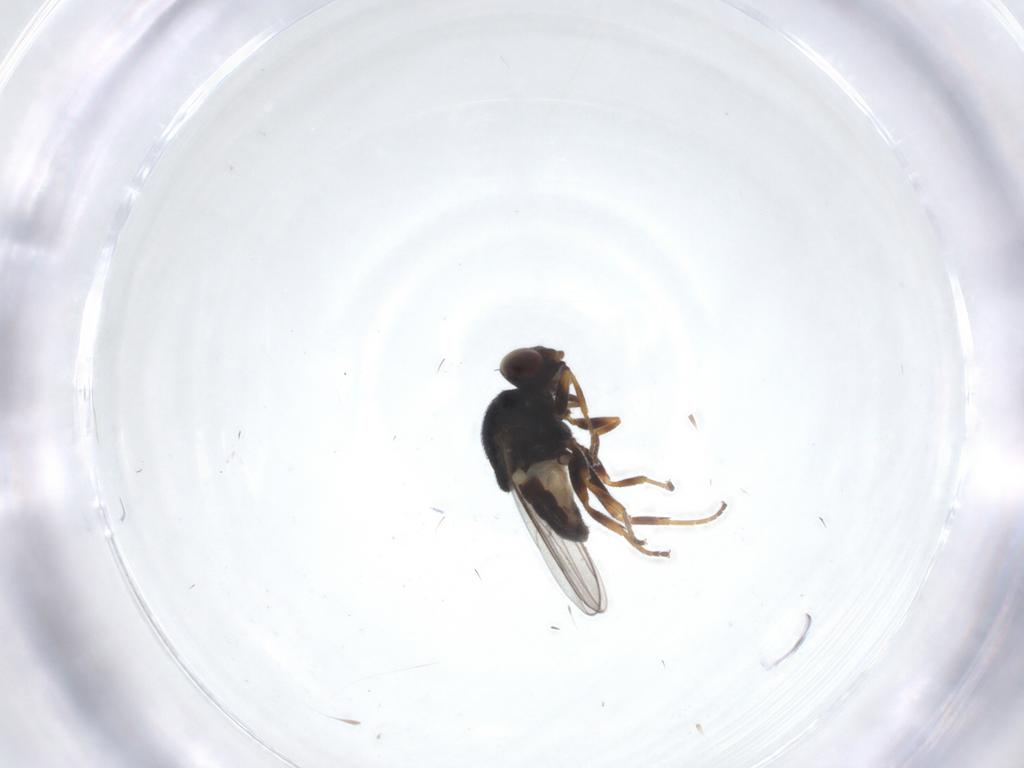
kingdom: Animalia
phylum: Arthropoda
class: Insecta
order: Diptera
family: Chloropidae
